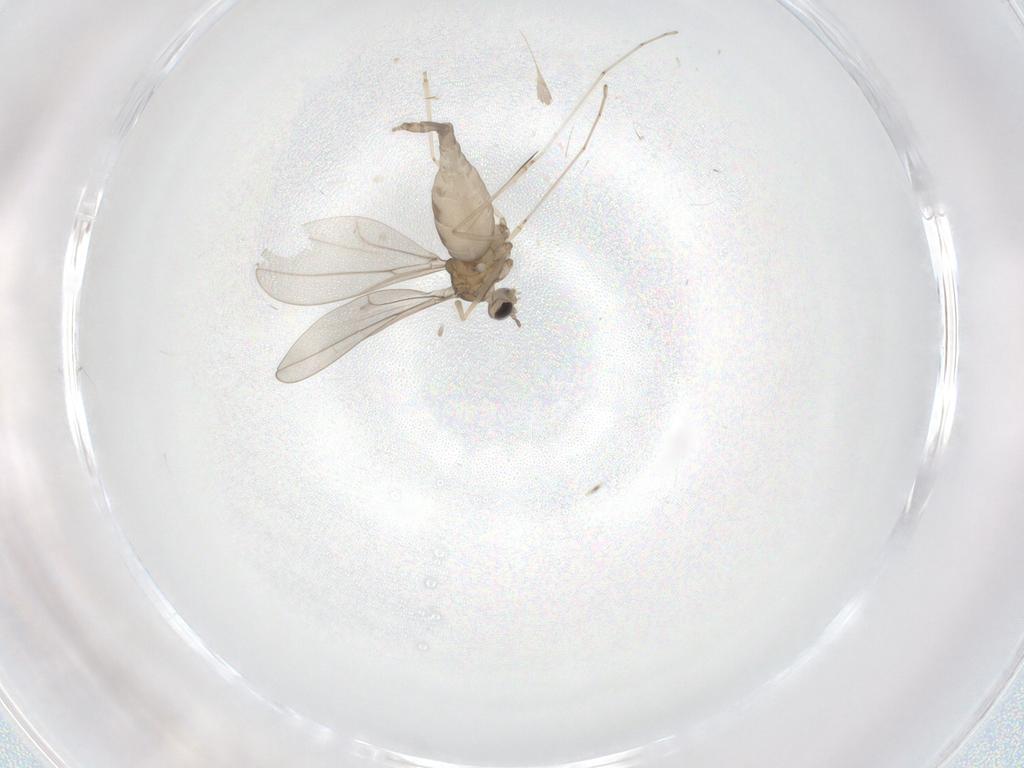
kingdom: Animalia
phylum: Arthropoda
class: Insecta
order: Diptera
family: Cecidomyiidae
